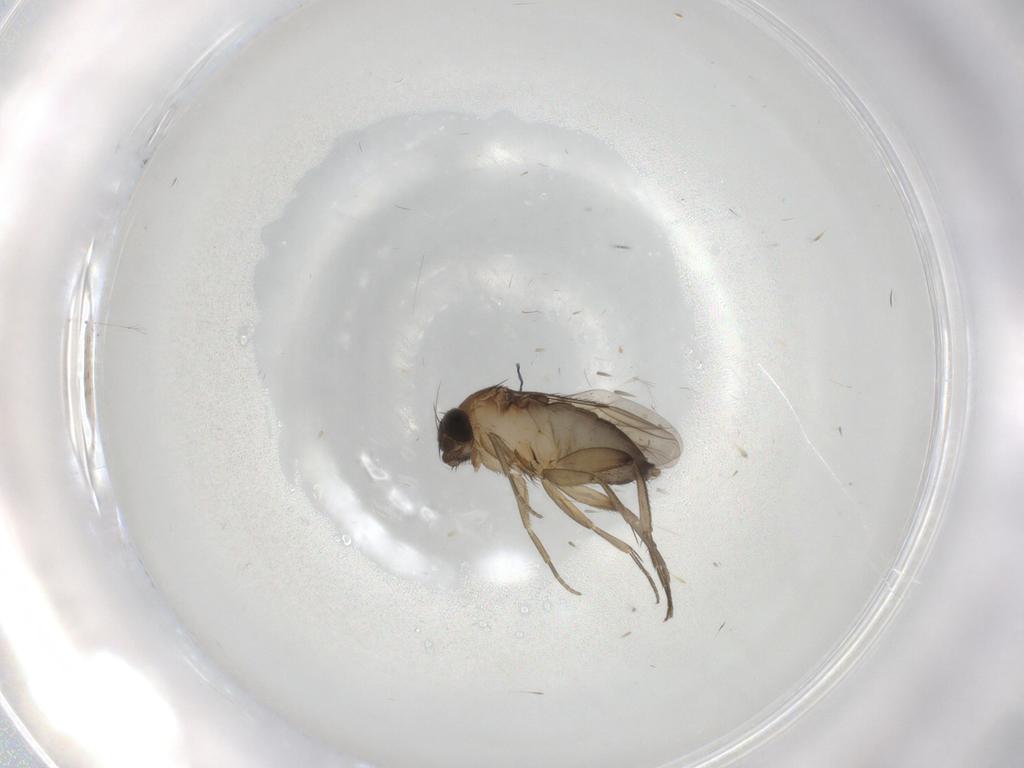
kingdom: Animalia
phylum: Arthropoda
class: Insecta
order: Diptera
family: Phoridae
